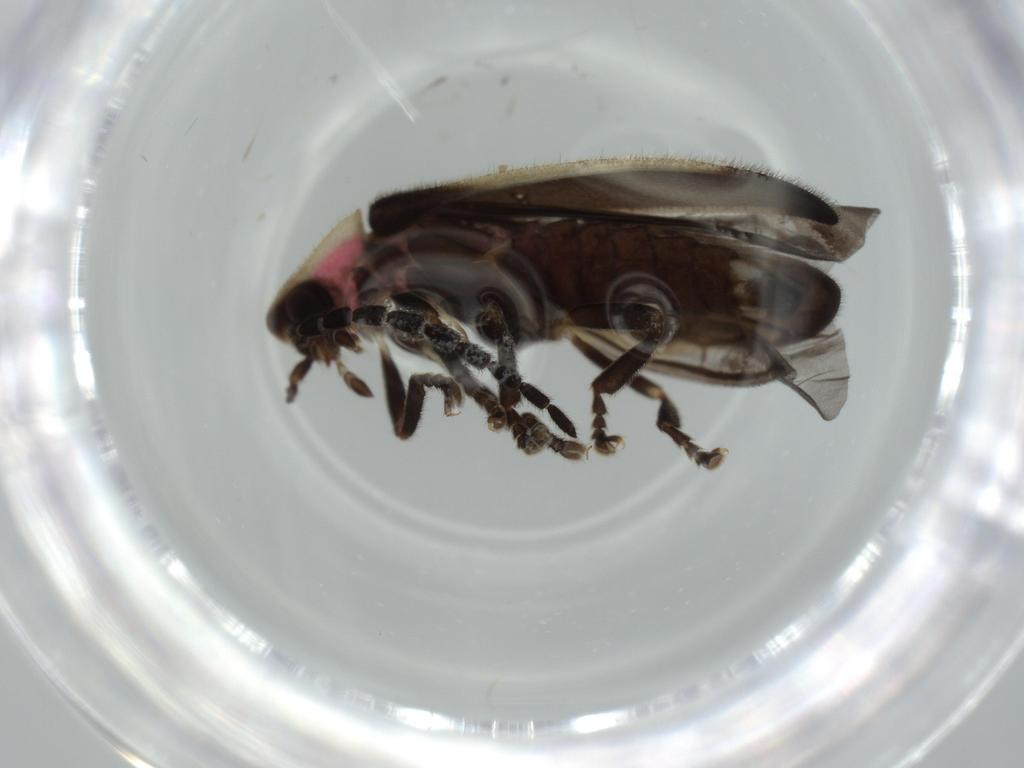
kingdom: Animalia
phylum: Arthropoda
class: Insecta
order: Coleoptera
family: Lampyridae
